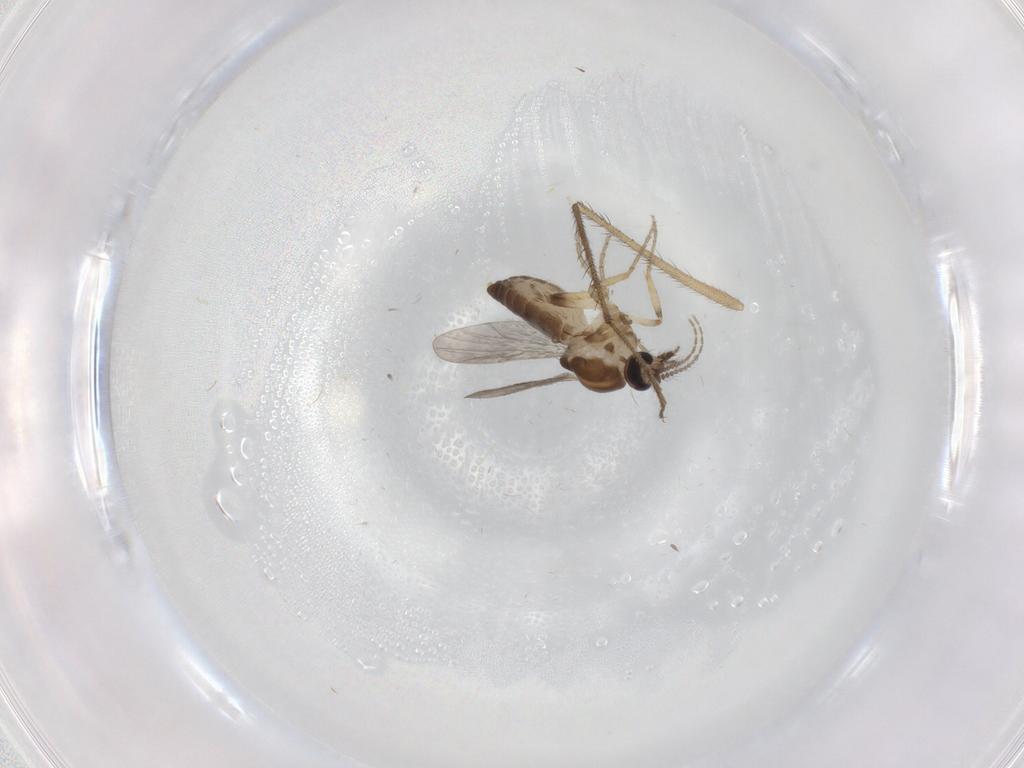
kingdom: Animalia
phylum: Arthropoda
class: Insecta
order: Diptera
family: Ceratopogonidae
